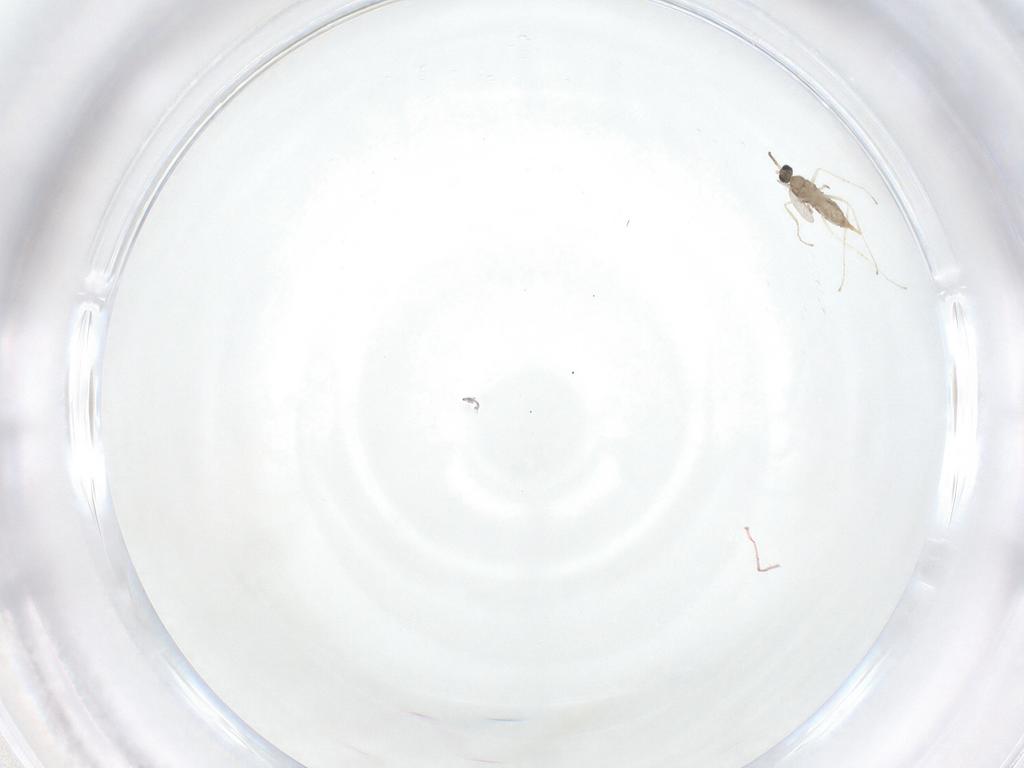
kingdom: Animalia
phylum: Arthropoda
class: Insecta
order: Diptera
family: Cecidomyiidae
